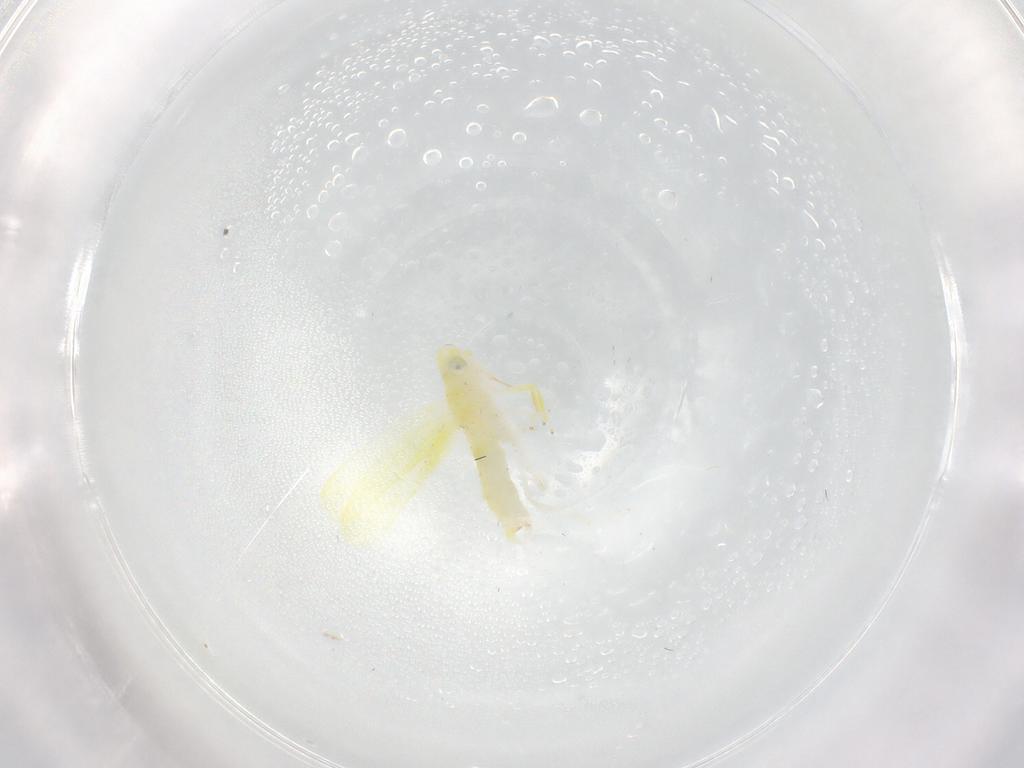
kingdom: Animalia
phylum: Arthropoda
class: Insecta
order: Hemiptera
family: Cicadellidae
